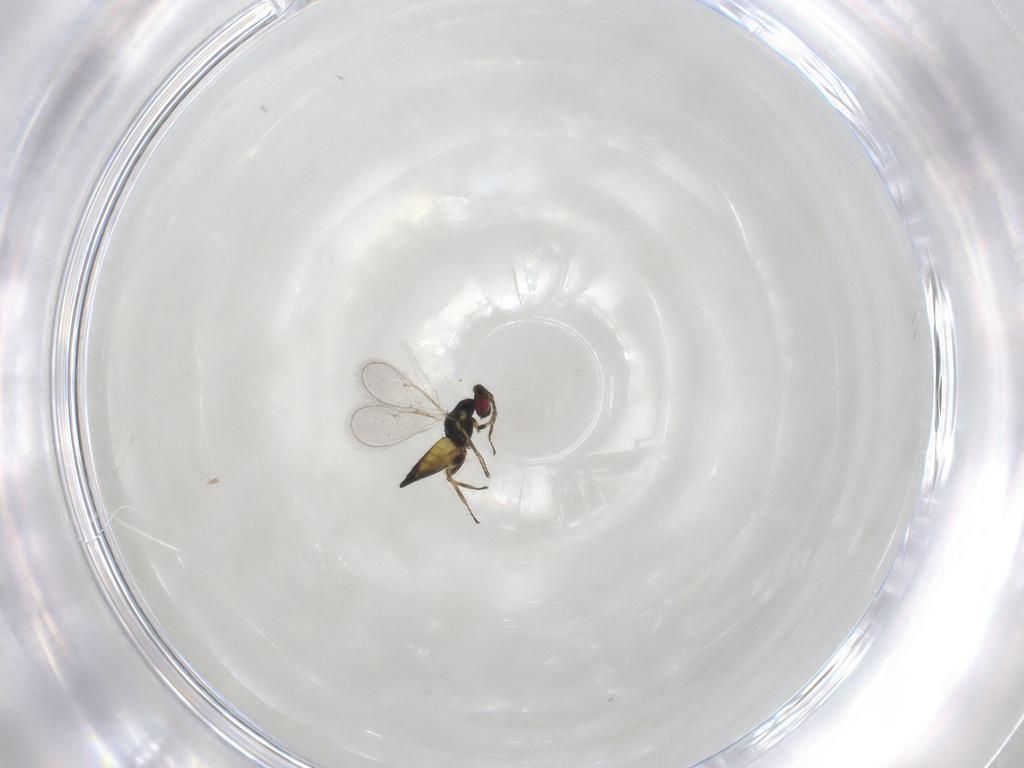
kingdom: Animalia
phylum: Arthropoda
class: Insecta
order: Hymenoptera
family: Eulophidae
